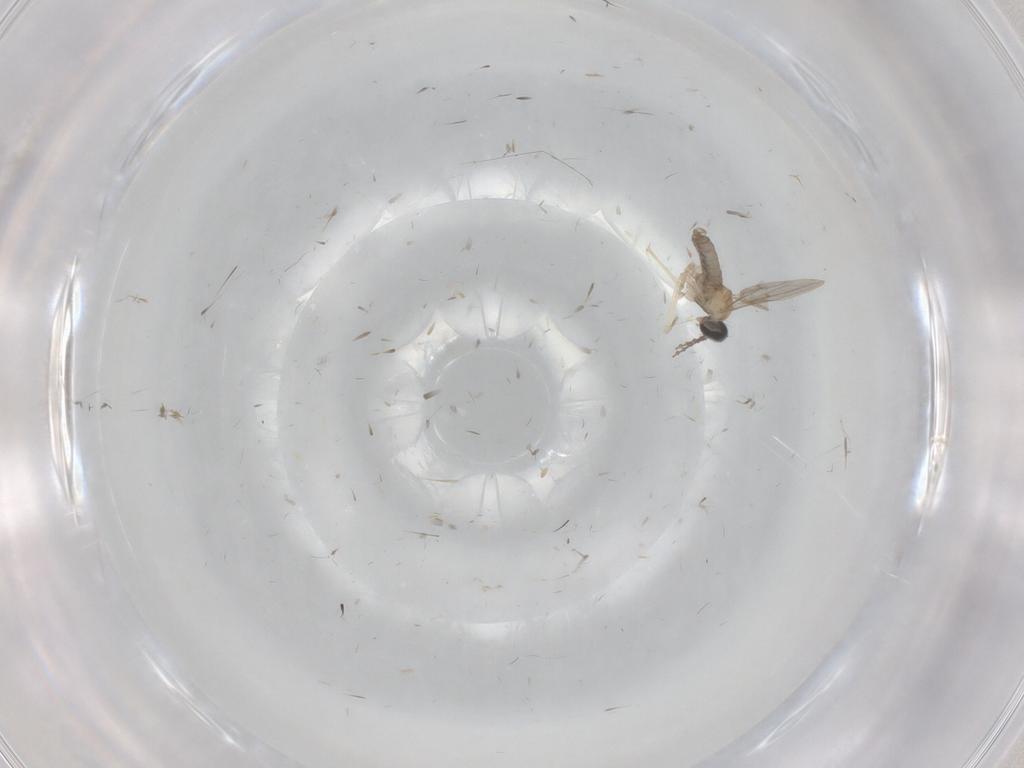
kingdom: Animalia
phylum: Arthropoda
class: Insecta
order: Diptera
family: Cecidomyiidae
